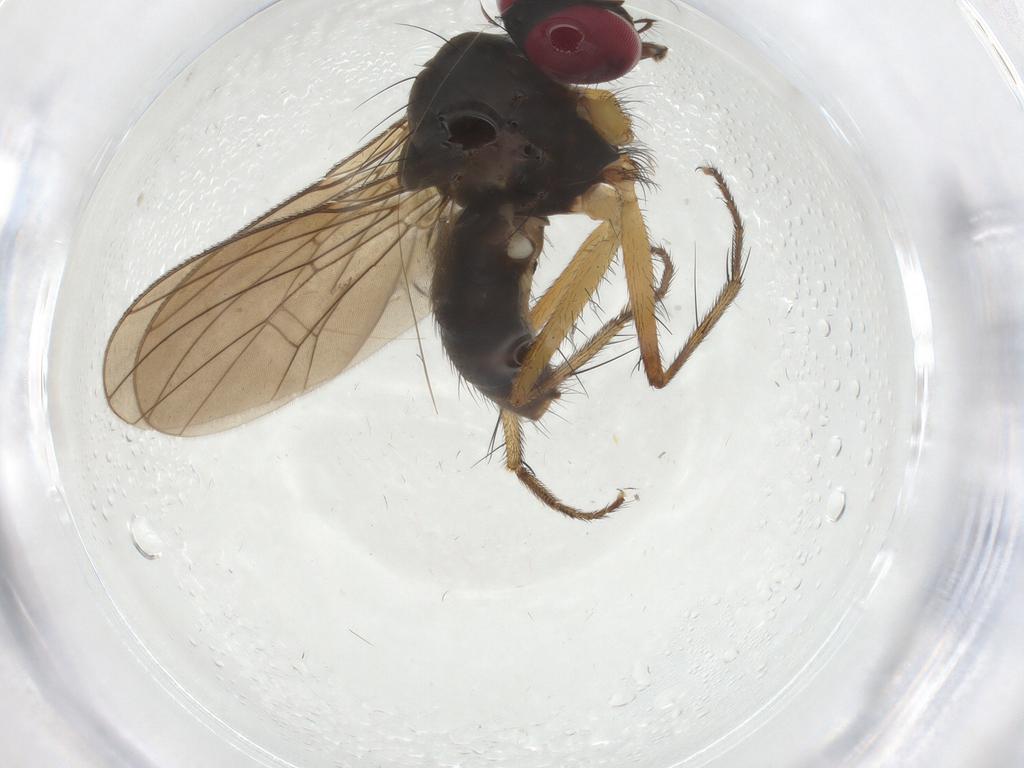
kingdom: Animalia
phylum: Arthropoda
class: Insecta
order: Diptera
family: Anthomyiidae
